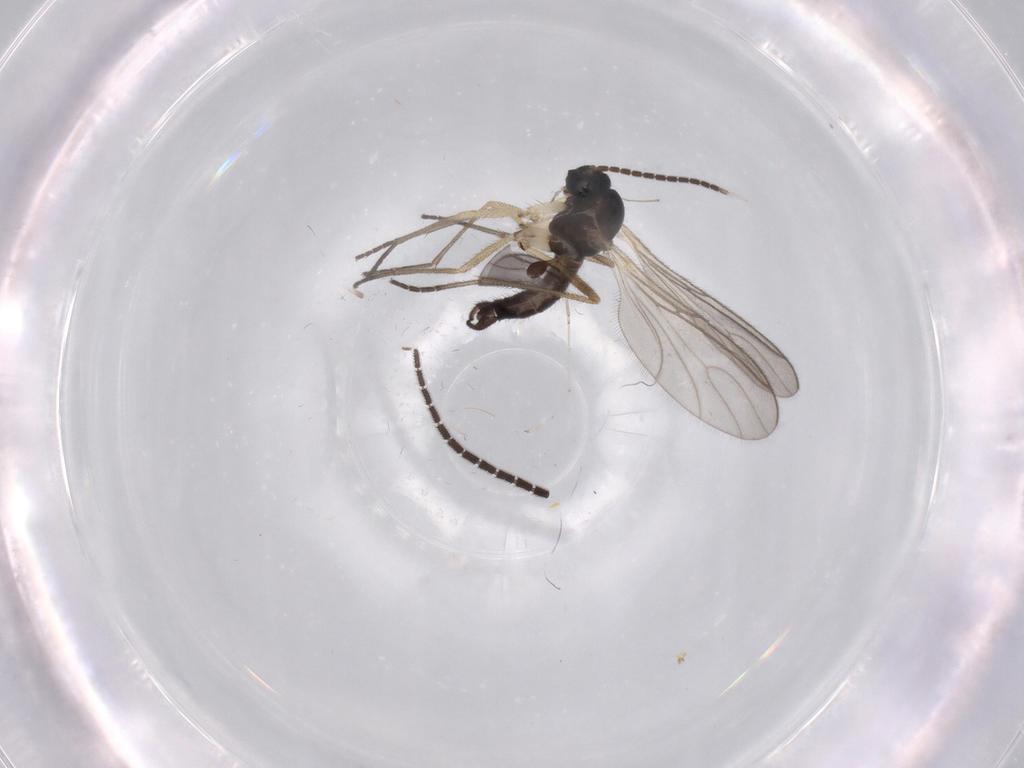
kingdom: Animalia
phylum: Arthropoda
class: Insecta
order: Diptera
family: Sciaridae
